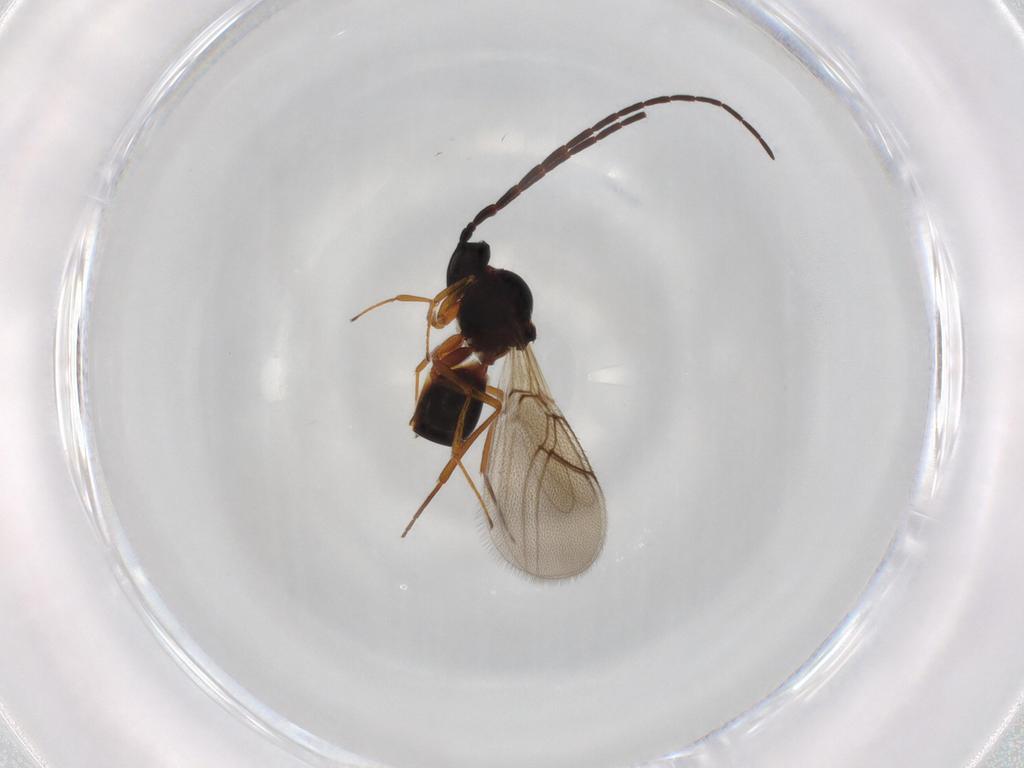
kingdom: Animalia
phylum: Arthropoda
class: Insecta
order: Hymenoptera
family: Figitidae
